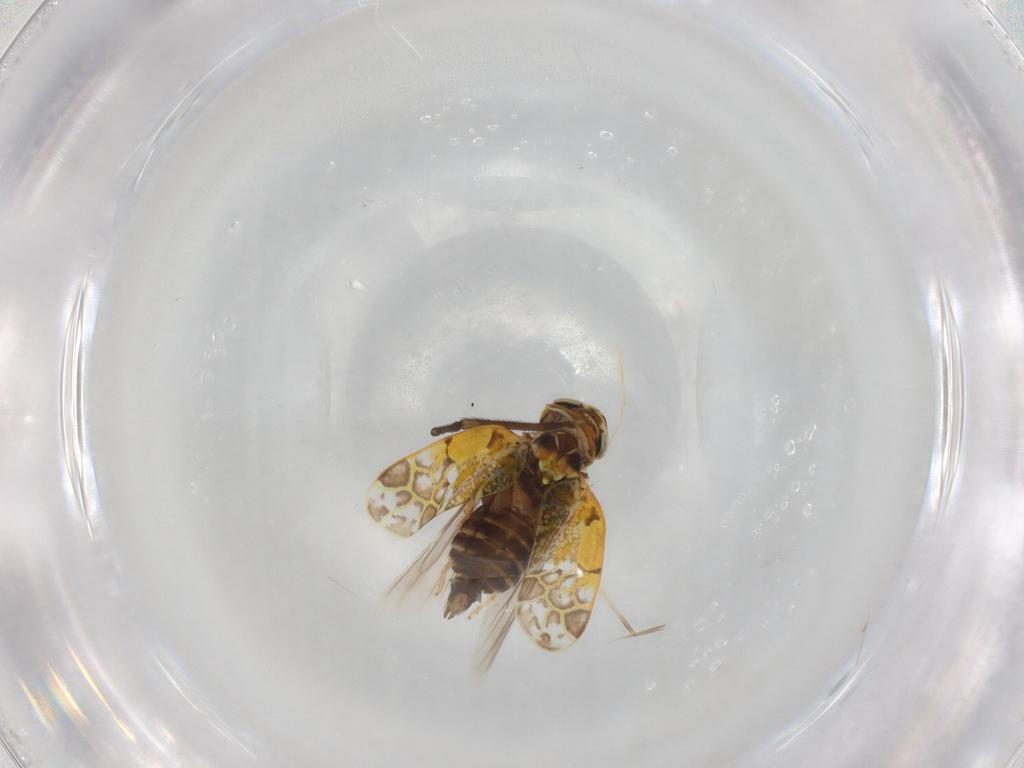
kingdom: Animalia
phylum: Arthropoda
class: Insecta
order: Hemiptera
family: Cicadellidae
